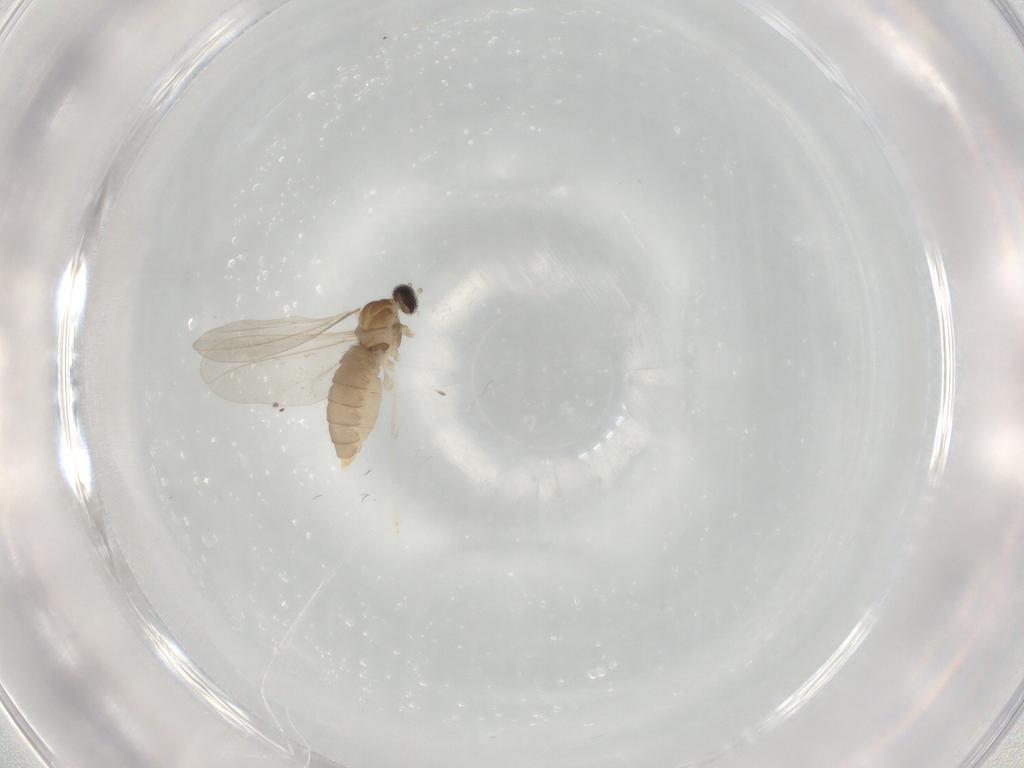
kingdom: Animalia
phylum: Arthropoda
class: Insecta
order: Diptera
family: Cecidomyiidae
